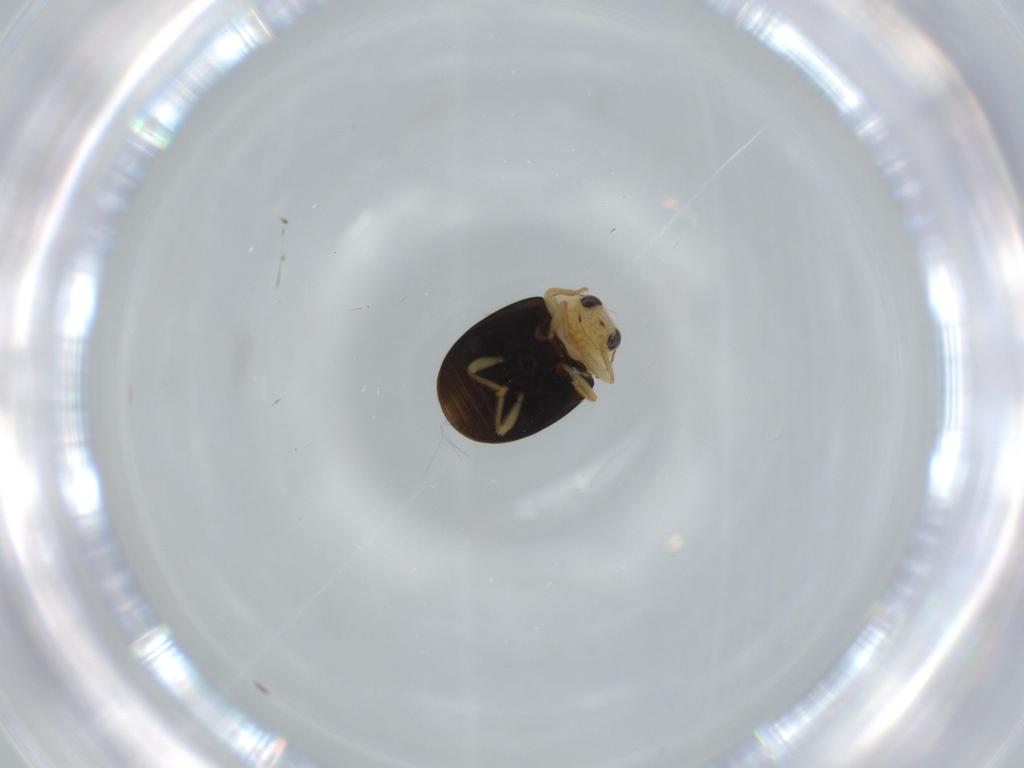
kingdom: Animalia
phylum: Arthropoda
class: Insecta
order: Coleoptera
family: Coccinellidae
